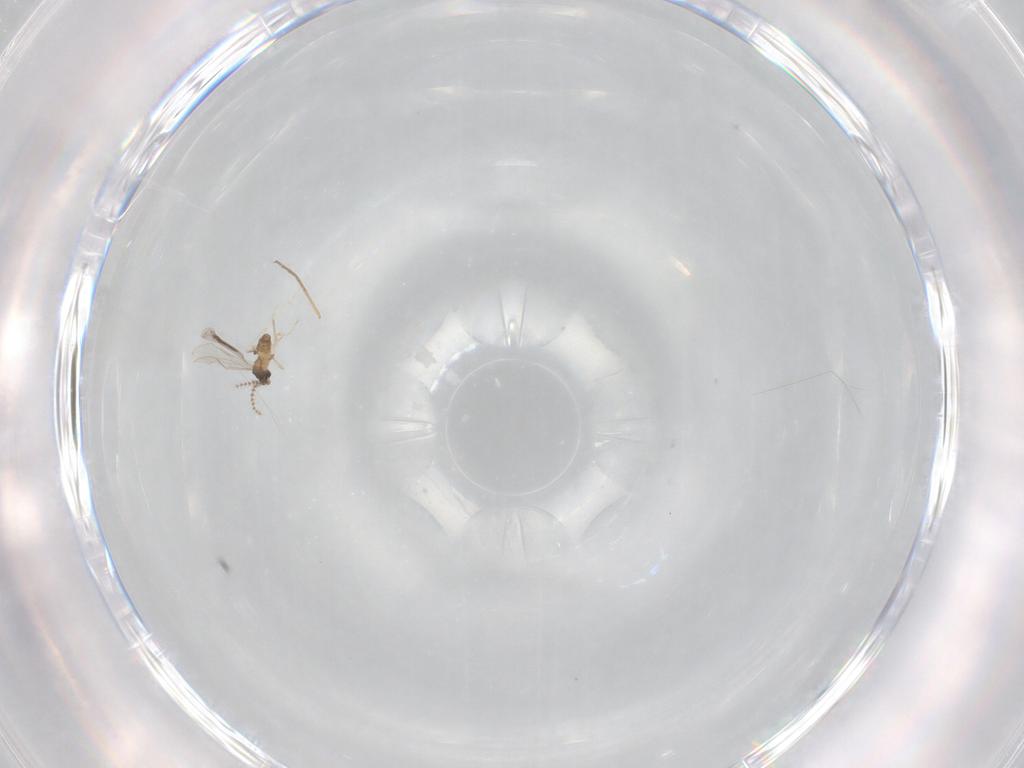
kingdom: Animalia
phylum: Arthropoda
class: Insecta
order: Diptera
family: Cecidomyiidae
